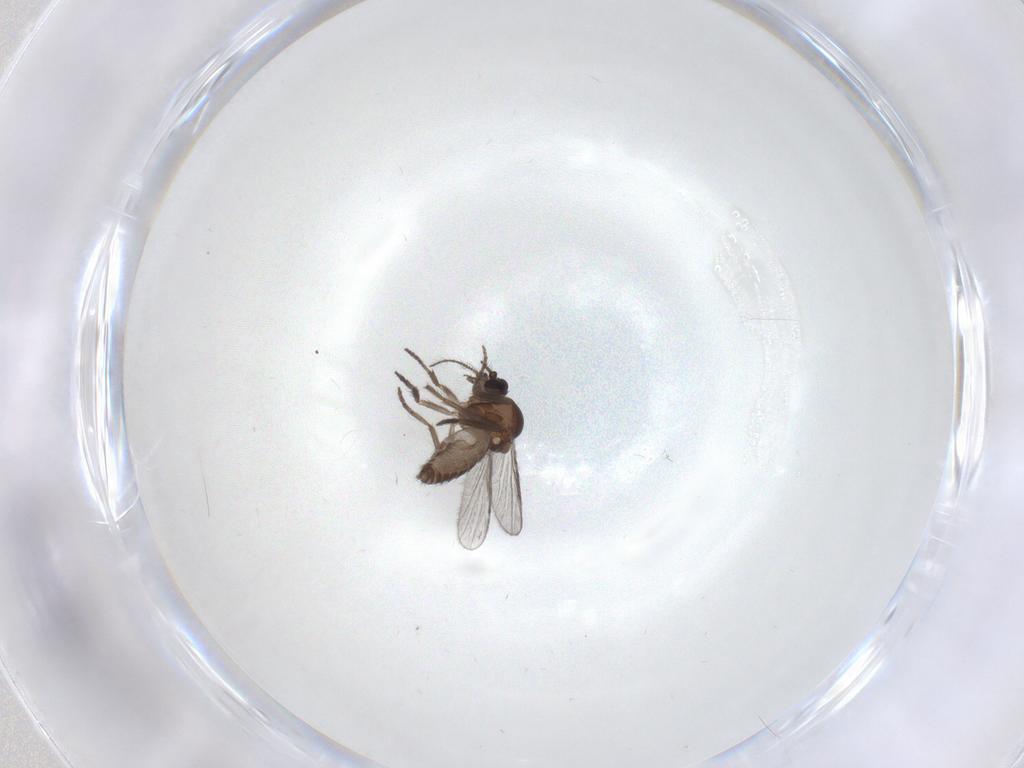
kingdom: Animalia
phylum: Arthropoda
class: Insecta
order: Diptera
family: Ceratopogonidae
